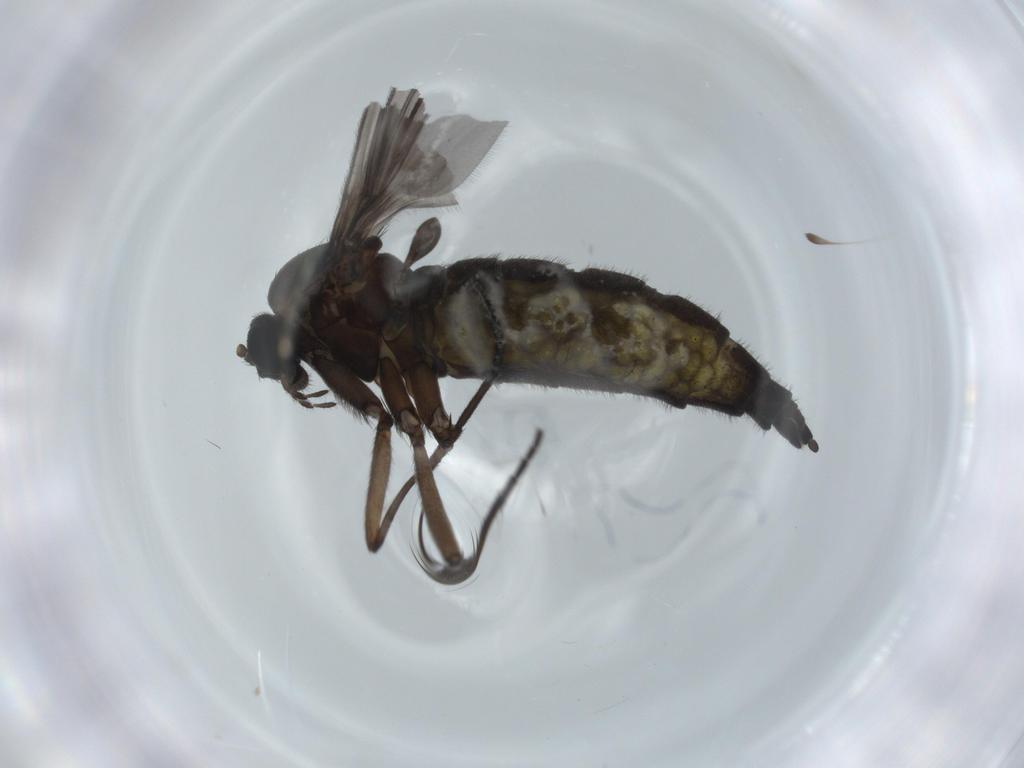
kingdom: Animalia
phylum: Arthropoda
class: Insecta
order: Diptera
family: Sciaridae
